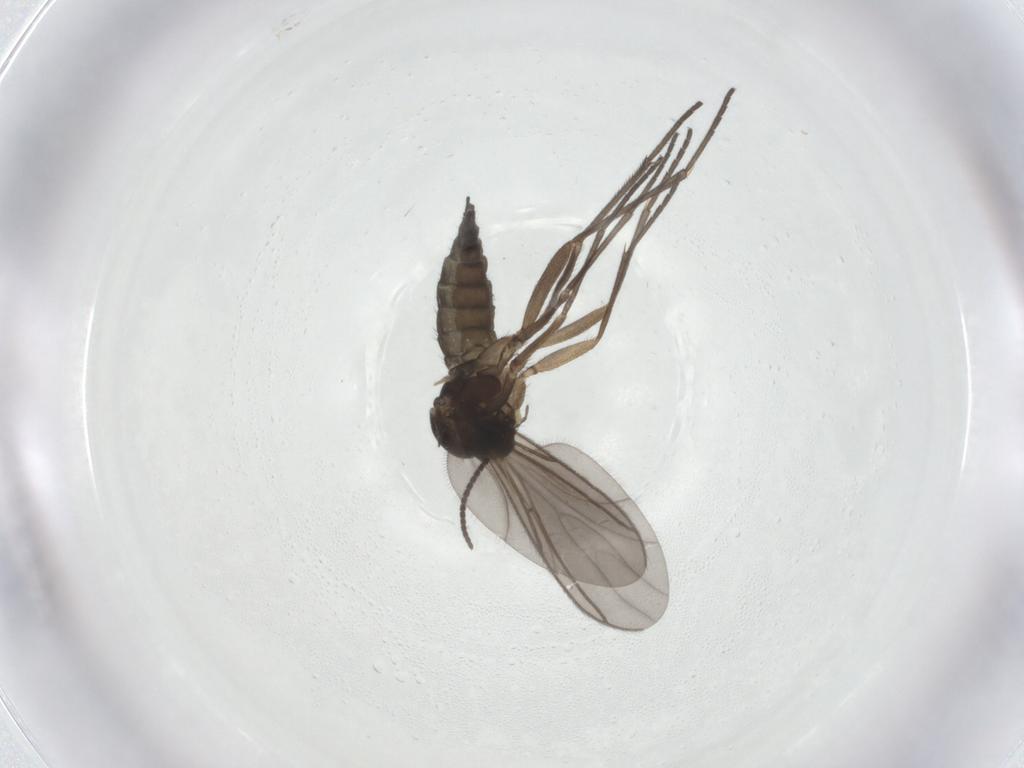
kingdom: Animalia
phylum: Arthropoda
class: Insecta
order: Diptera
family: Sciaridae
